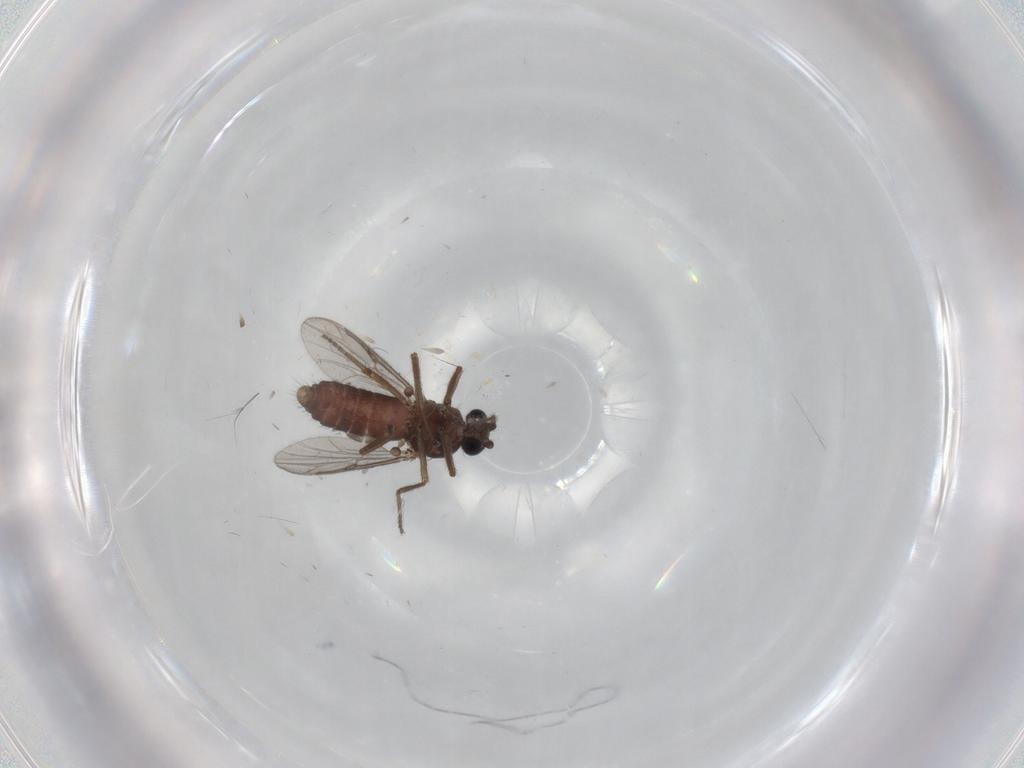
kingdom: Animalia
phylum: Arthropoda
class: Insecta
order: Diptera
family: Ceratopogonidae
